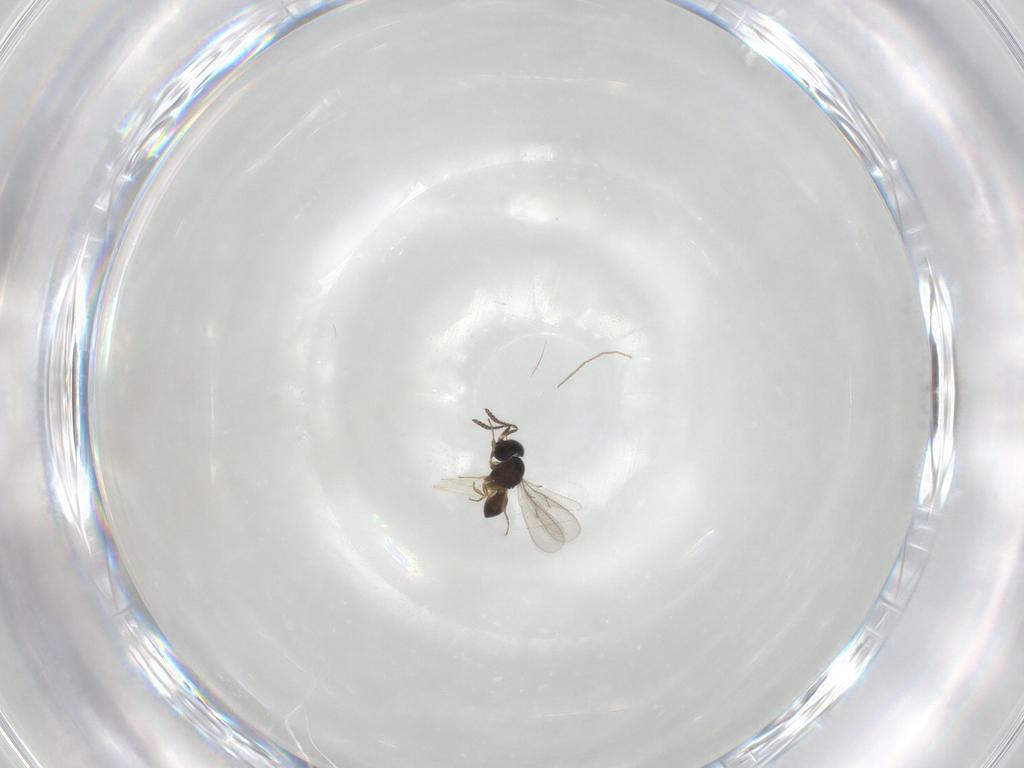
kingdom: Animalia
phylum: Arthropoda
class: Insecta
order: Hymenoptera
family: Scelionidae
